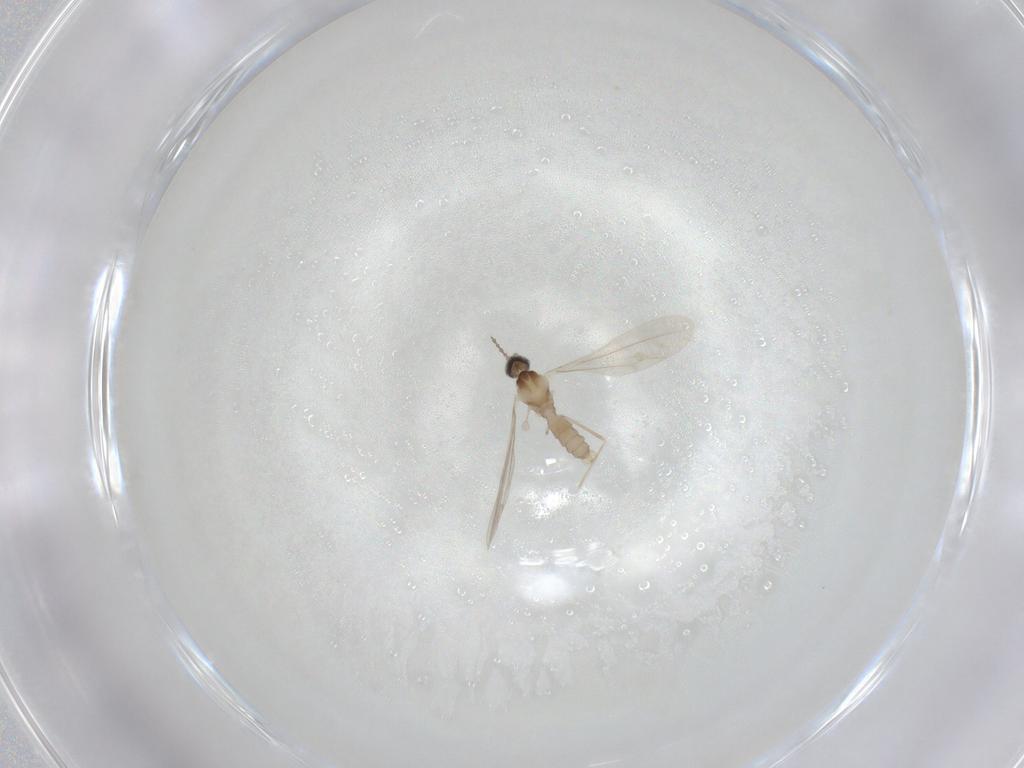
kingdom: Animalia
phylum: Arthropoda
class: Insecta
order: Diptera
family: Cecidomyiidae
